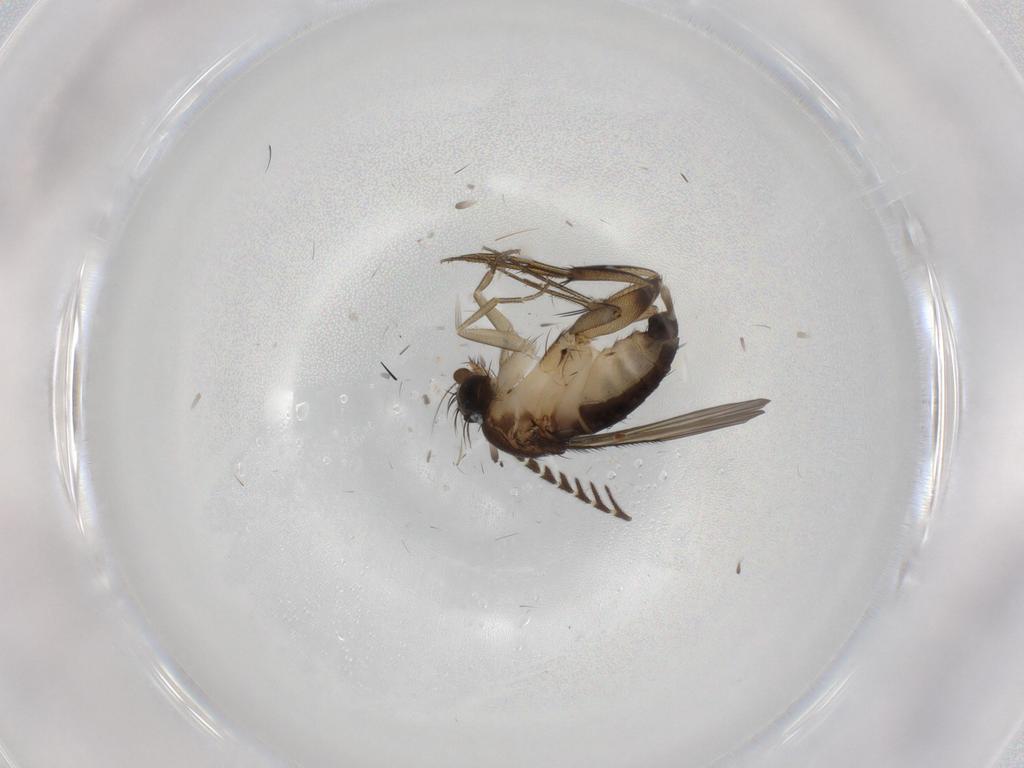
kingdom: Animalia
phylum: Arthropoda
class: Insecta
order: Diptera
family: Ditomyiidae
